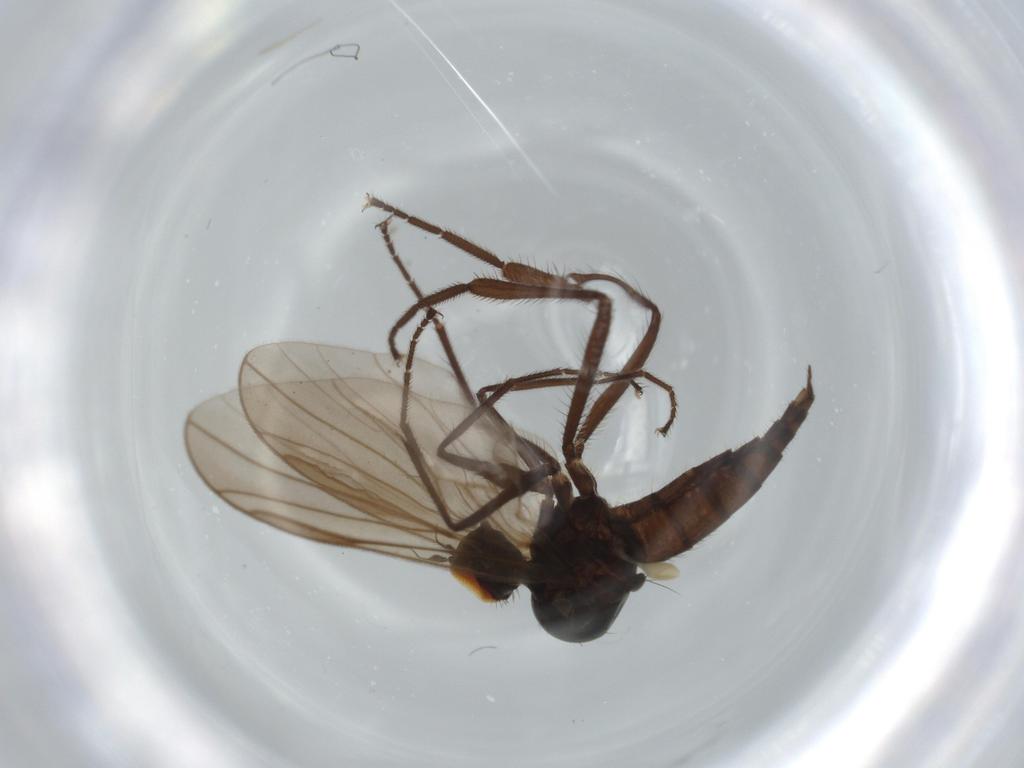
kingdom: Animalia
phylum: Arthropoda
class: Insecta
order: Diptera
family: Hybotidae
